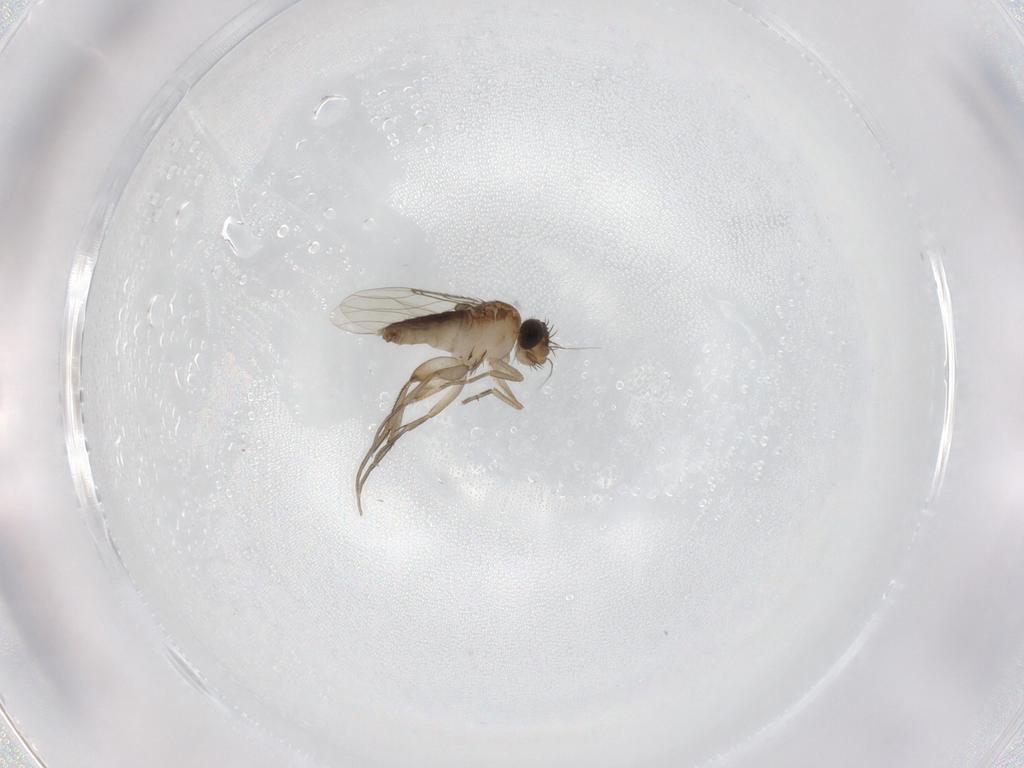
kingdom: Animalia
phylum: Arthropoda
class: Insecta
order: Diptera
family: Phoridae
